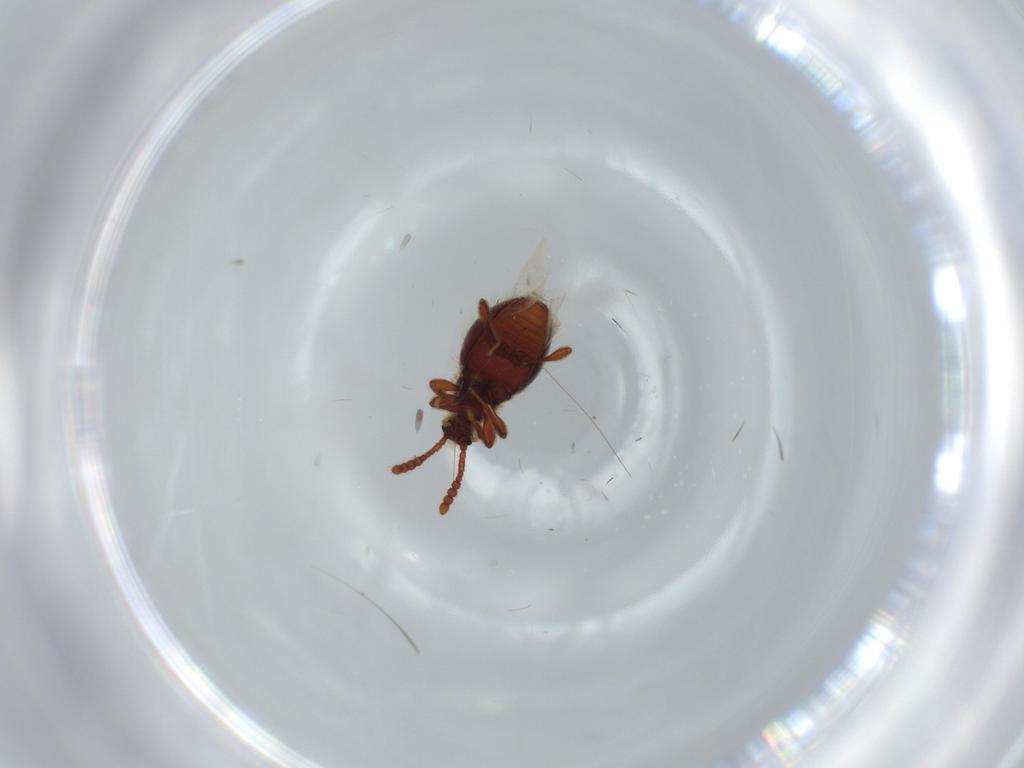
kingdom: Animalia
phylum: Arthropoda
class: Insecta
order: Coleoptera
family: Staphylinidae
